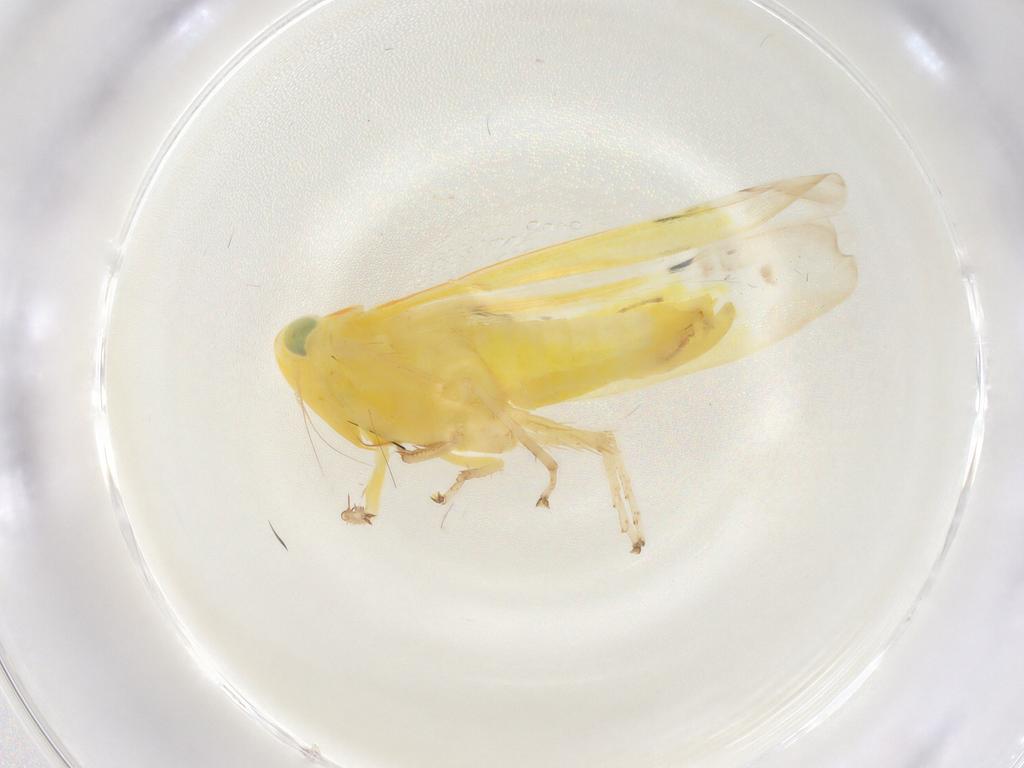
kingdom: Animalia
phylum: Arthropoda
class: Insecta
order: Hemiptera
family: Cicadellidae
